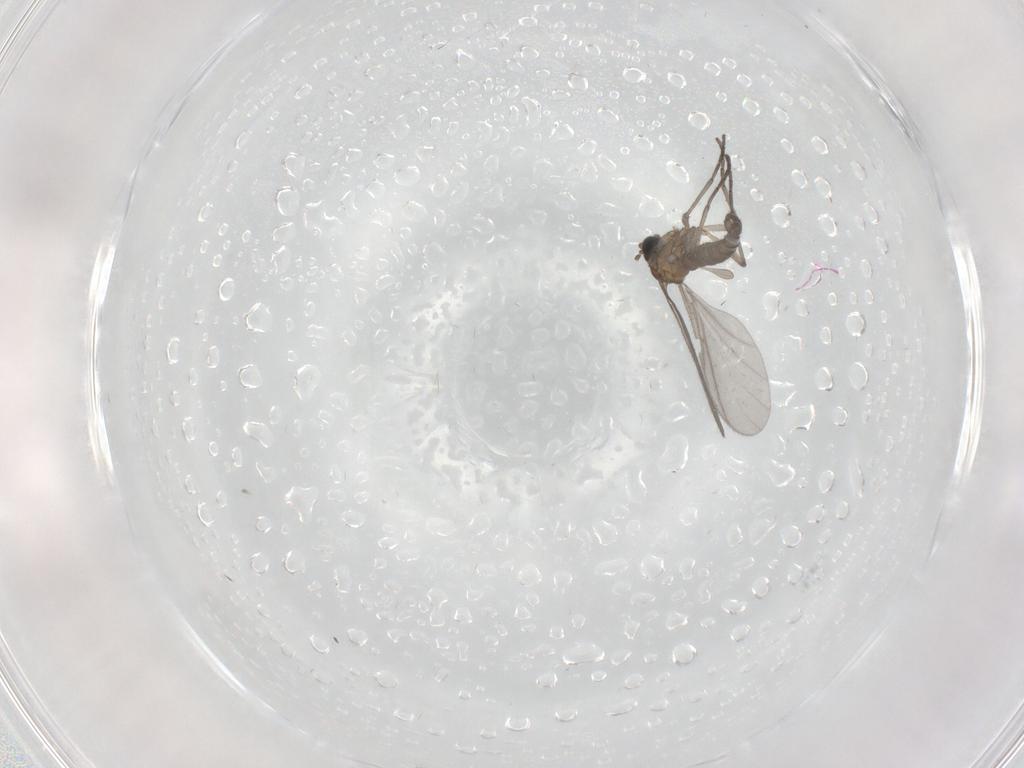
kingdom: Animalia
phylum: Arthropoda
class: Insecta
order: Diptera
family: Sciaridae
